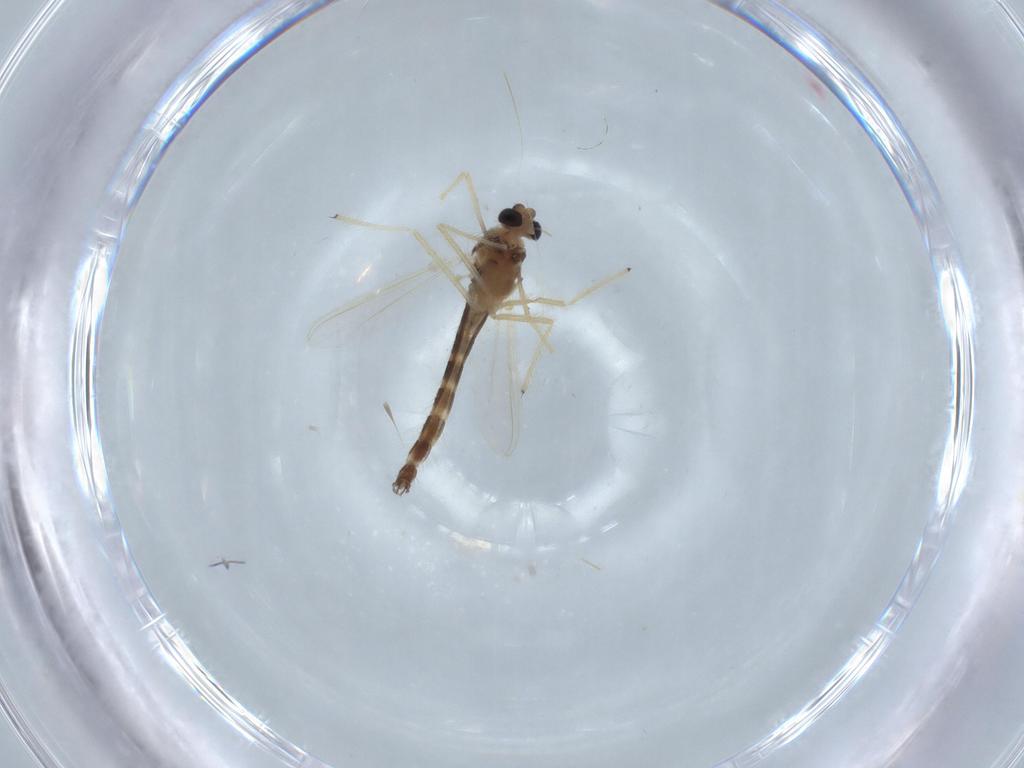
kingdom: Animalia
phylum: Arthropoda
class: Insecta
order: Diptera
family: Chironomidae
